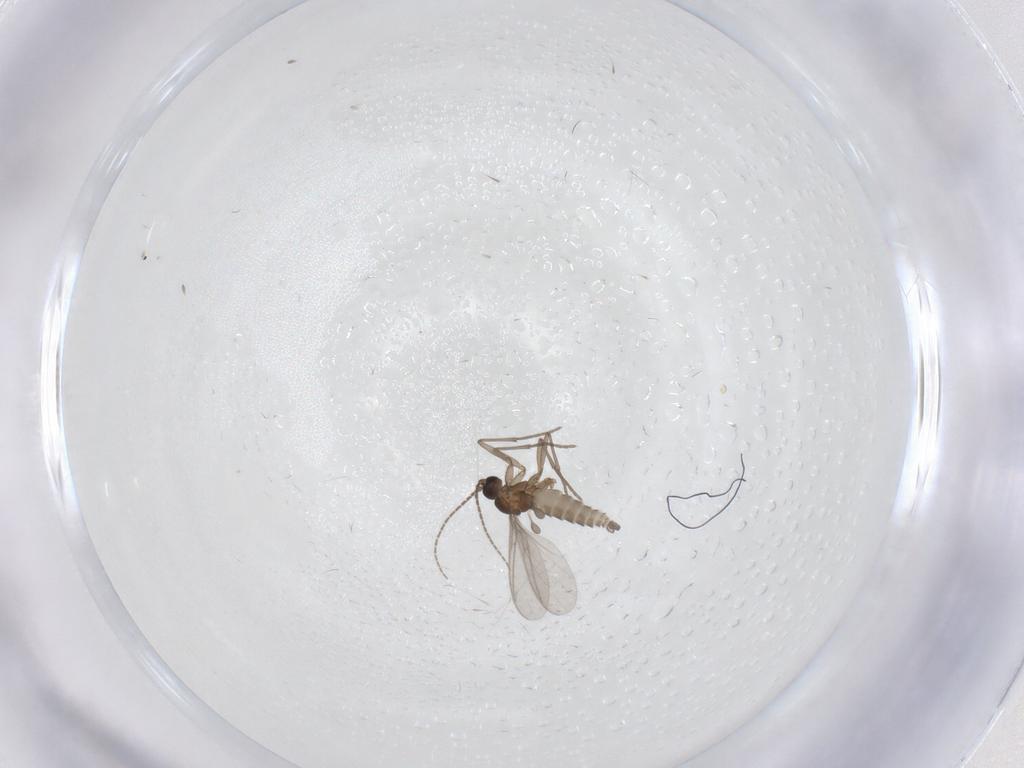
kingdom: Animalia
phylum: Arthropoda
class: Insecta
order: Diptera
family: Sciaridae
